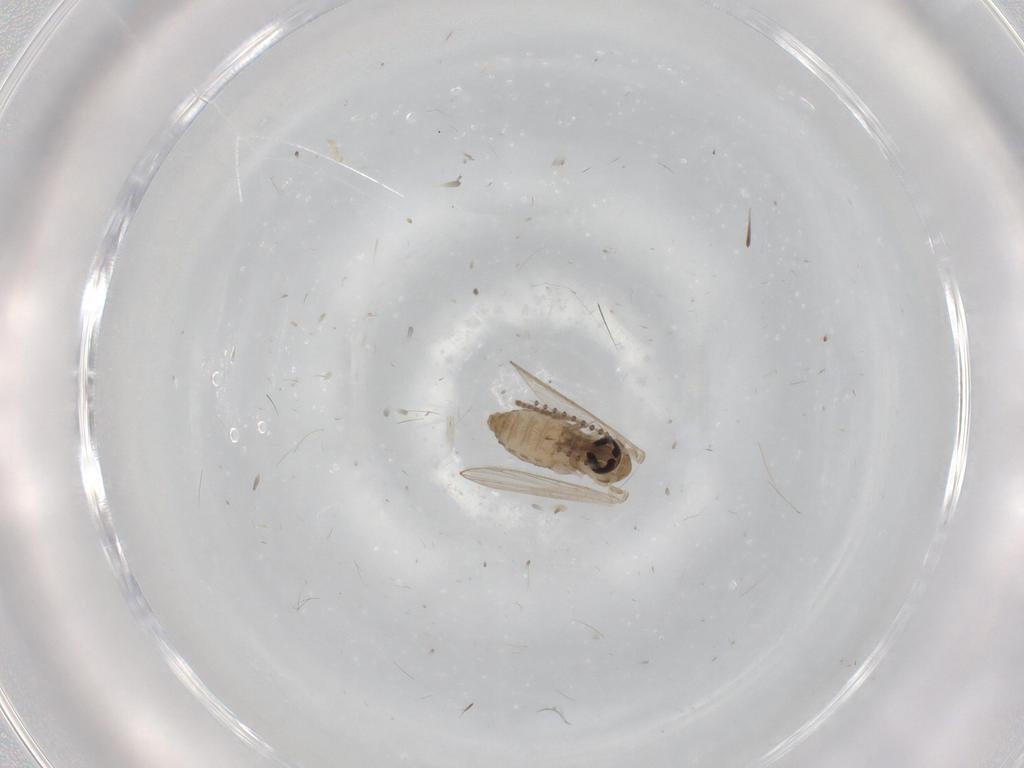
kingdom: Animalia
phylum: Arthropoda
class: Insecta
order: Diptera
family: Psychodidae
